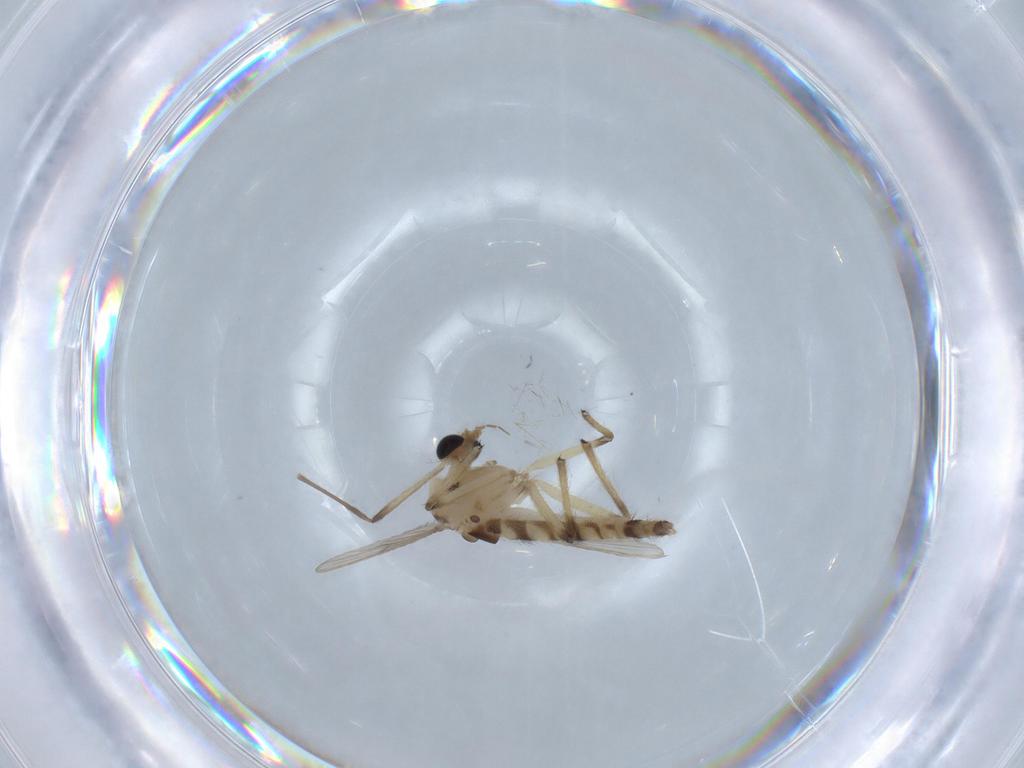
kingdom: Animalia
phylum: Arthropoda
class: Insecta
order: Diptera
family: Chironomidae
